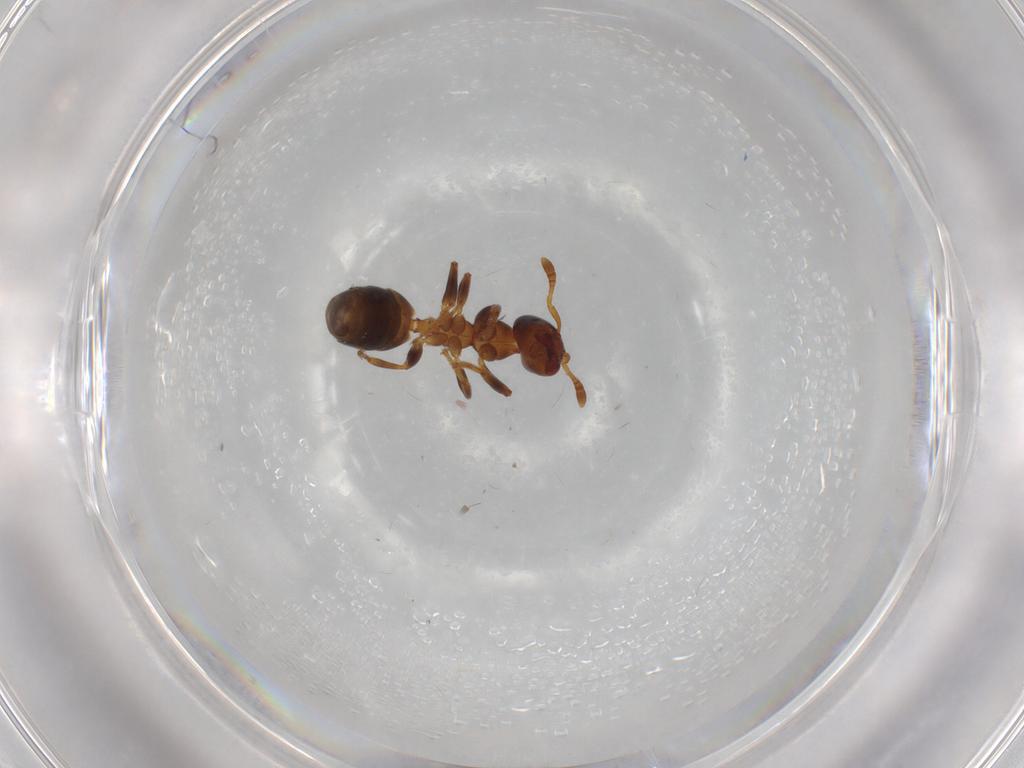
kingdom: Animalia
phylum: Arthropoda
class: Insecta
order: Hymenoptera
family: Formicidae
